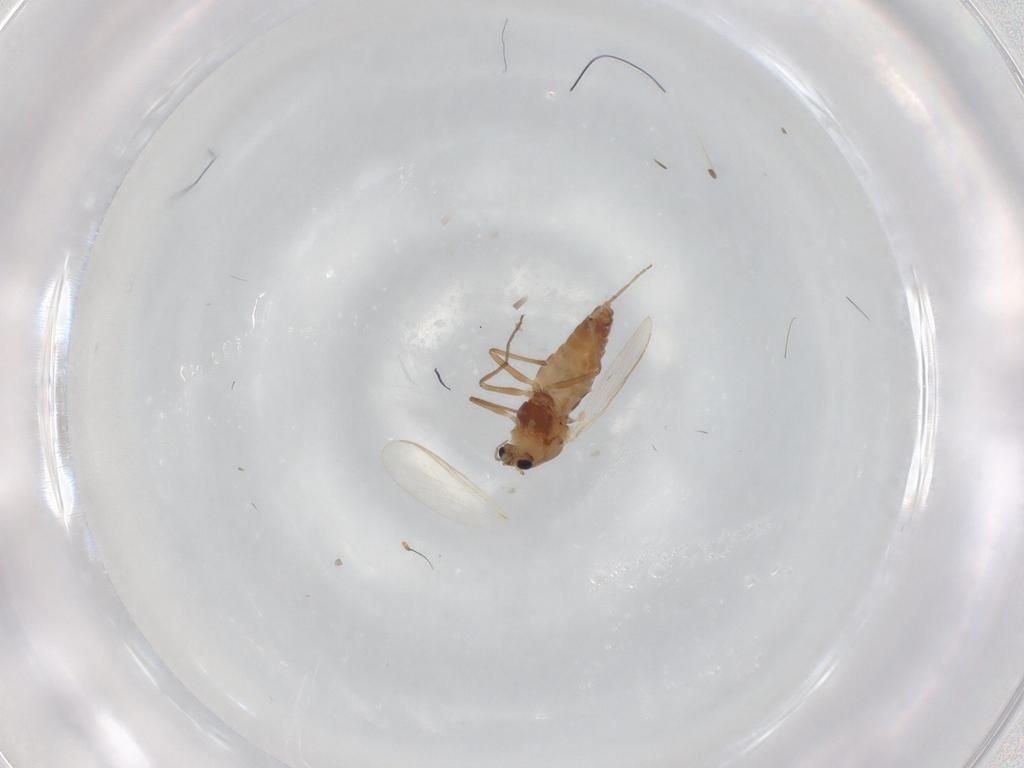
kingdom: Animalia
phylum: Arthropoda
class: Insecta
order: Diptera
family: Chironomidae
